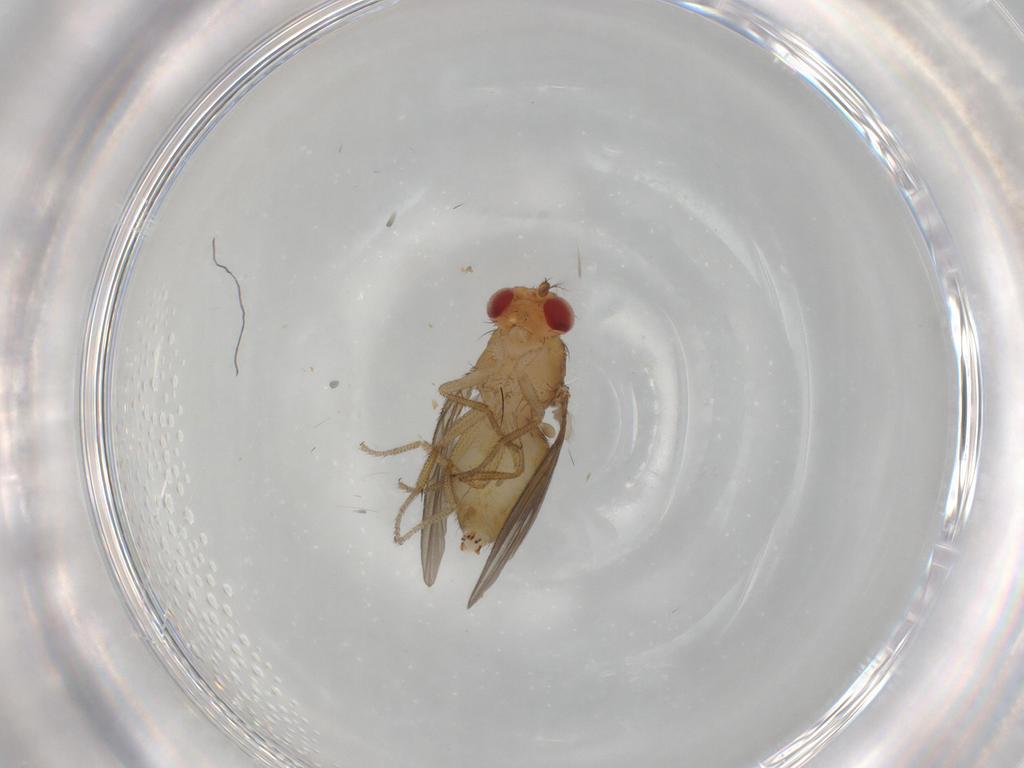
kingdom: Animalia
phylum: Arthropoda
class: Insecta
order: Diptera
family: Drosophilidae
